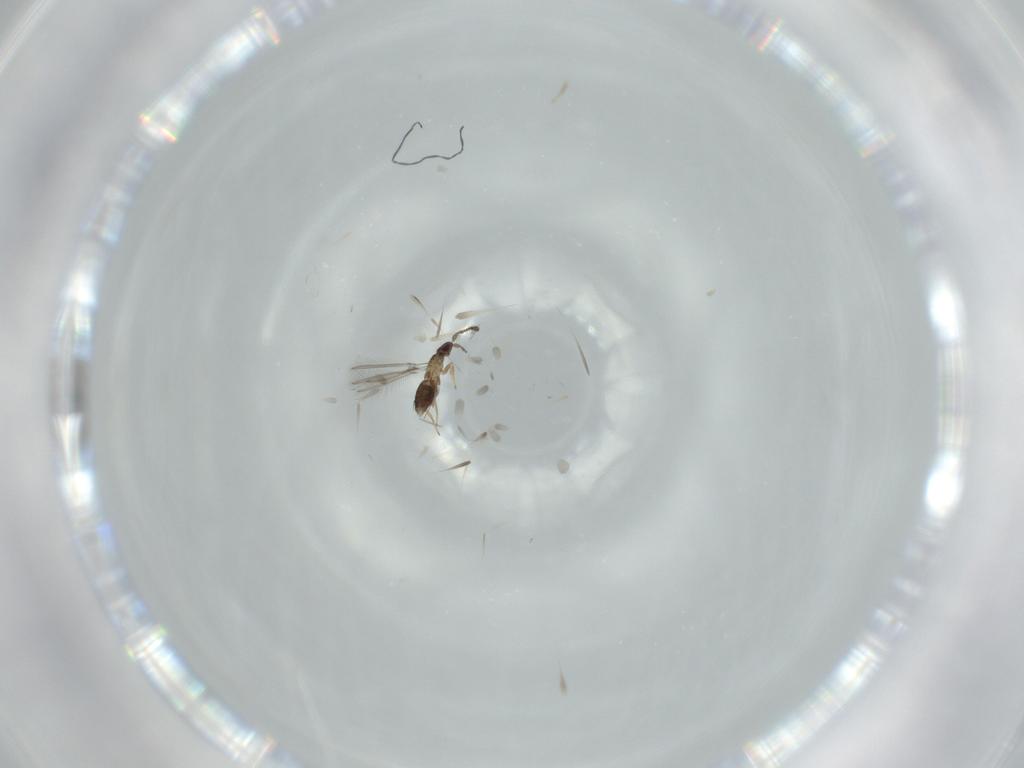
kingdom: Animalia
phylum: Arthropoda
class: Insecta
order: Hymenoptera
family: Mymaridae
